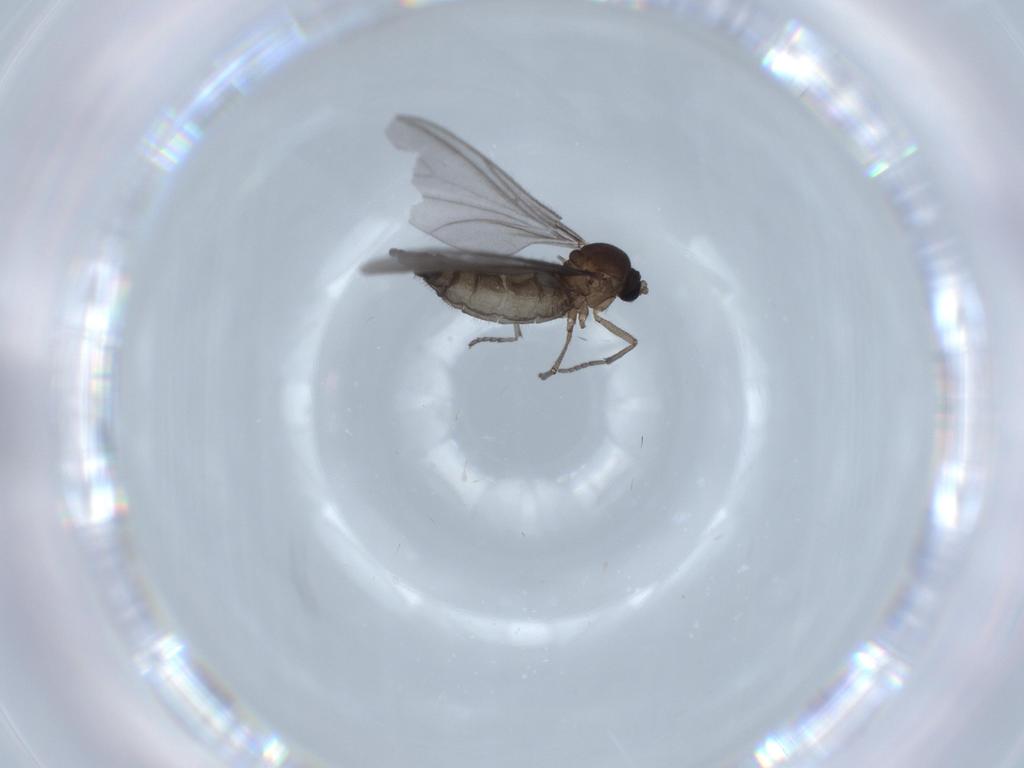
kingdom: Animalia
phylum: Arthropoda
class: Insecta
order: Diptera
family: Sciaridae
